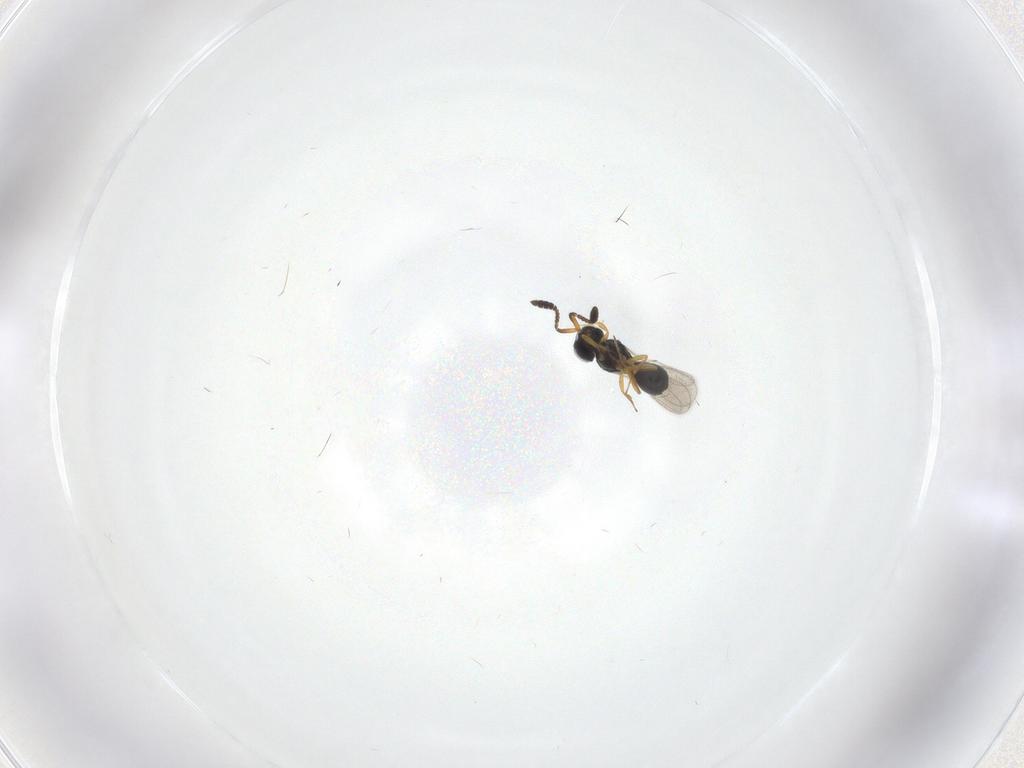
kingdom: Animalia
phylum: Arthropoda
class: Insecta
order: Hymenoptera
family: Scelionidae
